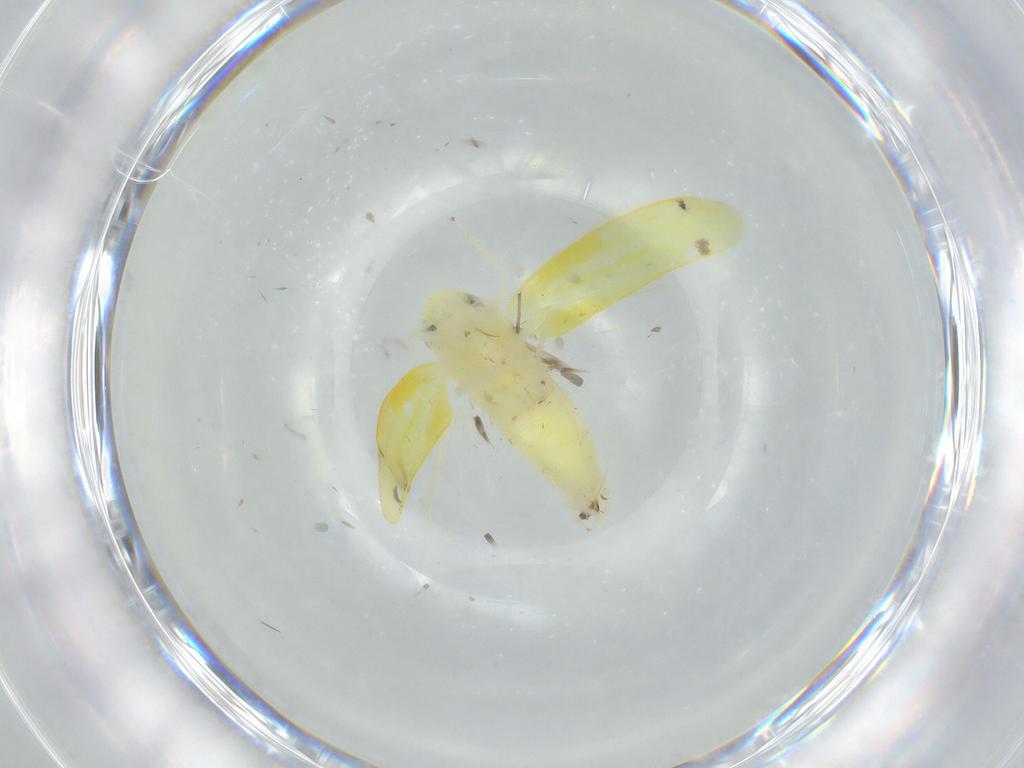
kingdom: Animalia
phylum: Arthropoda
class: Insecta
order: Hemiptera
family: Cicadellidae
